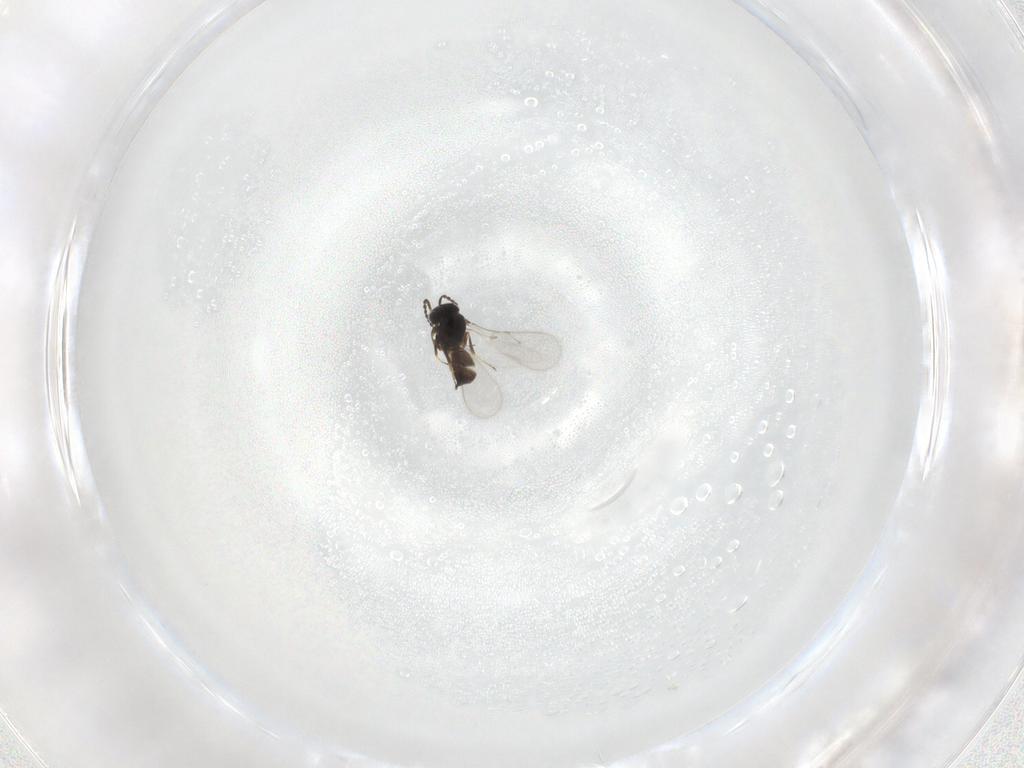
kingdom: Animalia
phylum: Arthropoda
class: Insecta
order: Hymenoptera
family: Scelionidae
